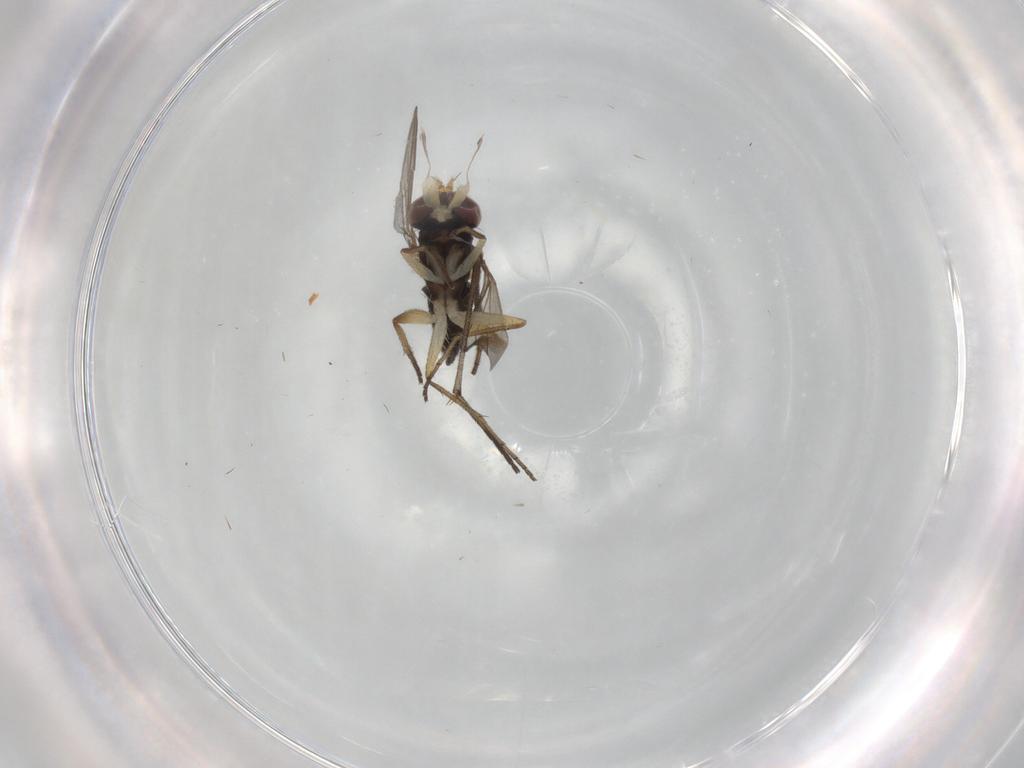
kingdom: Animalia
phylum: Arthropoda
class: Insecta
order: Diptera
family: Dolichopodidae
